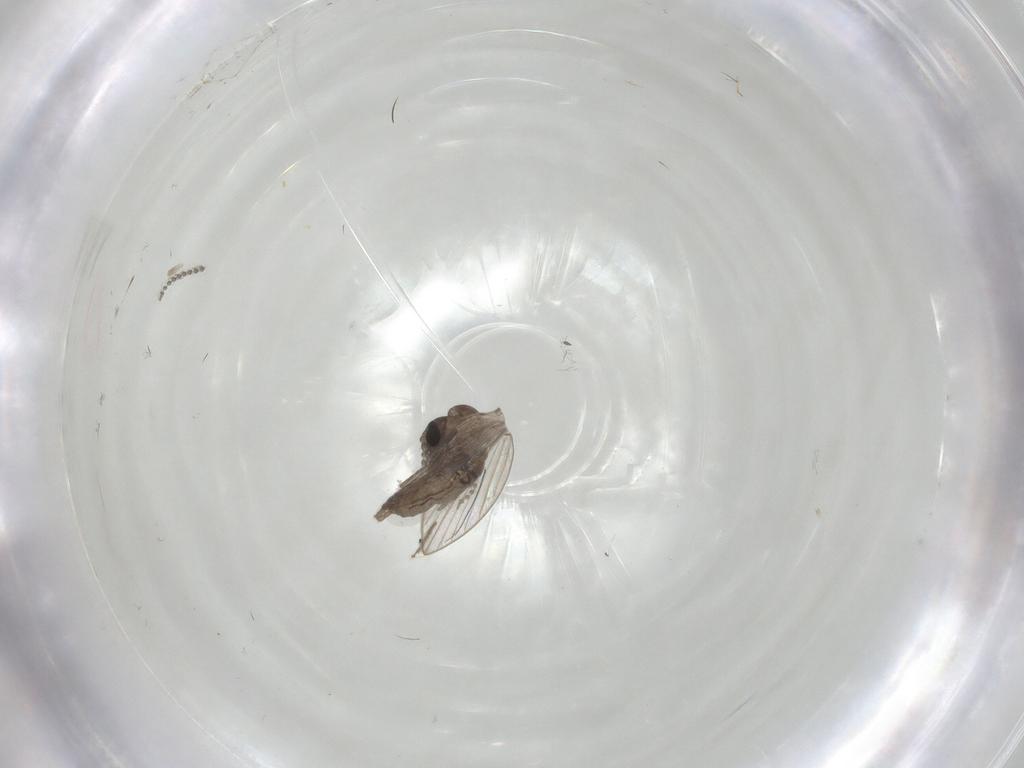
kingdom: Animalia
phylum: Arthropoda
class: Insecta
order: Diptera
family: Psychodidae
